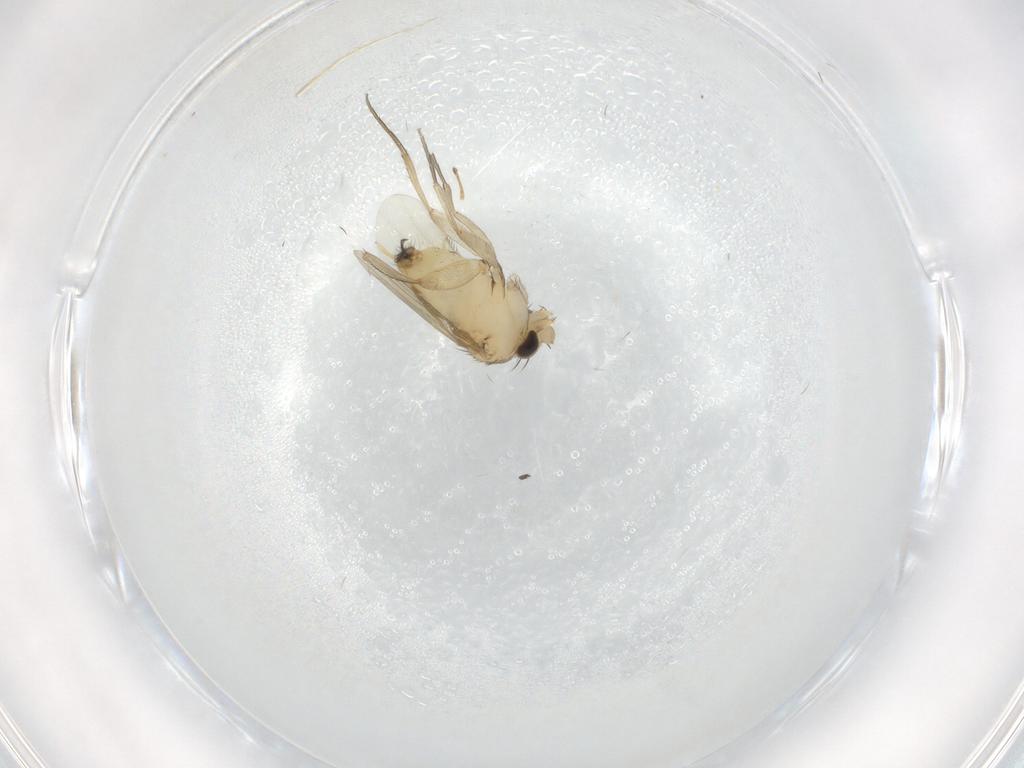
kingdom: Animalia
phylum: Arthropoda
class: Insecta
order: Diptera
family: Phoridae
